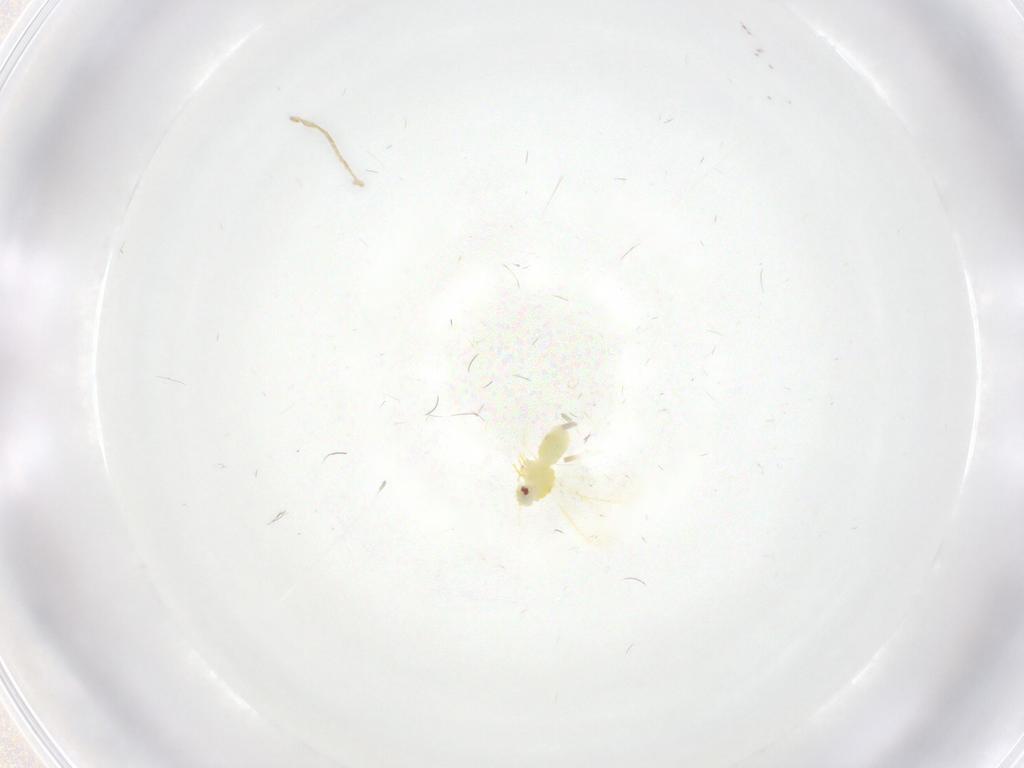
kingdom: Animalia
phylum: Arthropoda
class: Insecta
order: Hemiptera
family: Aleyrodidae
